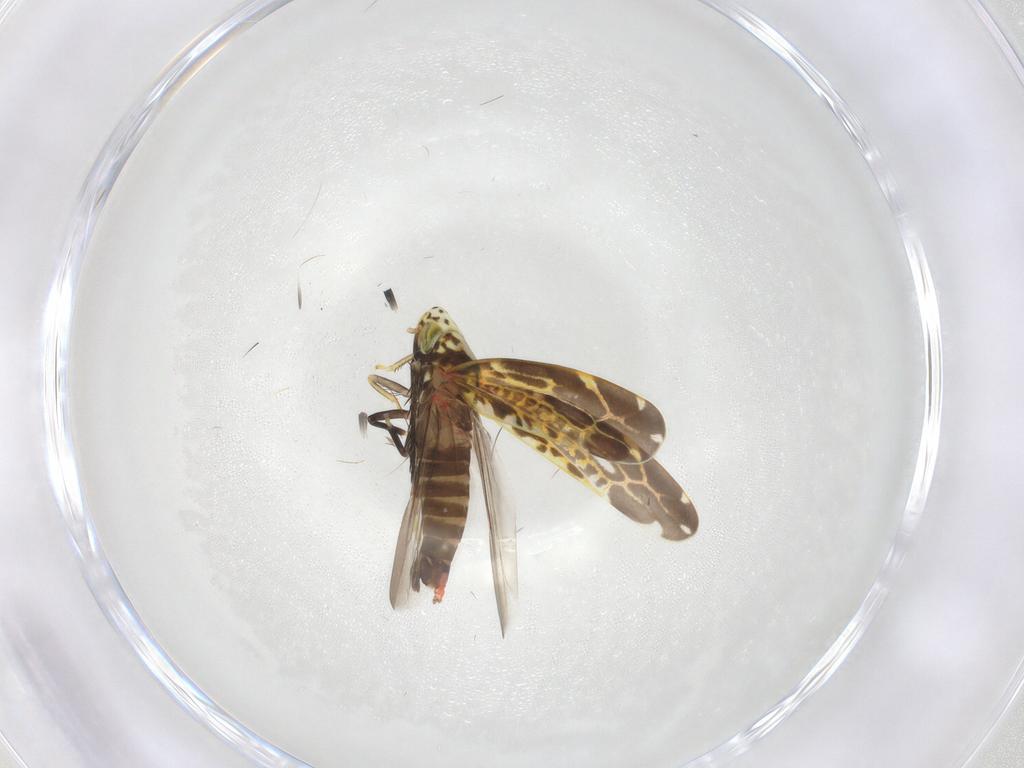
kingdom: Animalia
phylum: Arthropoda
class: Insecta
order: Hemiptera
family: Cicadellidae
